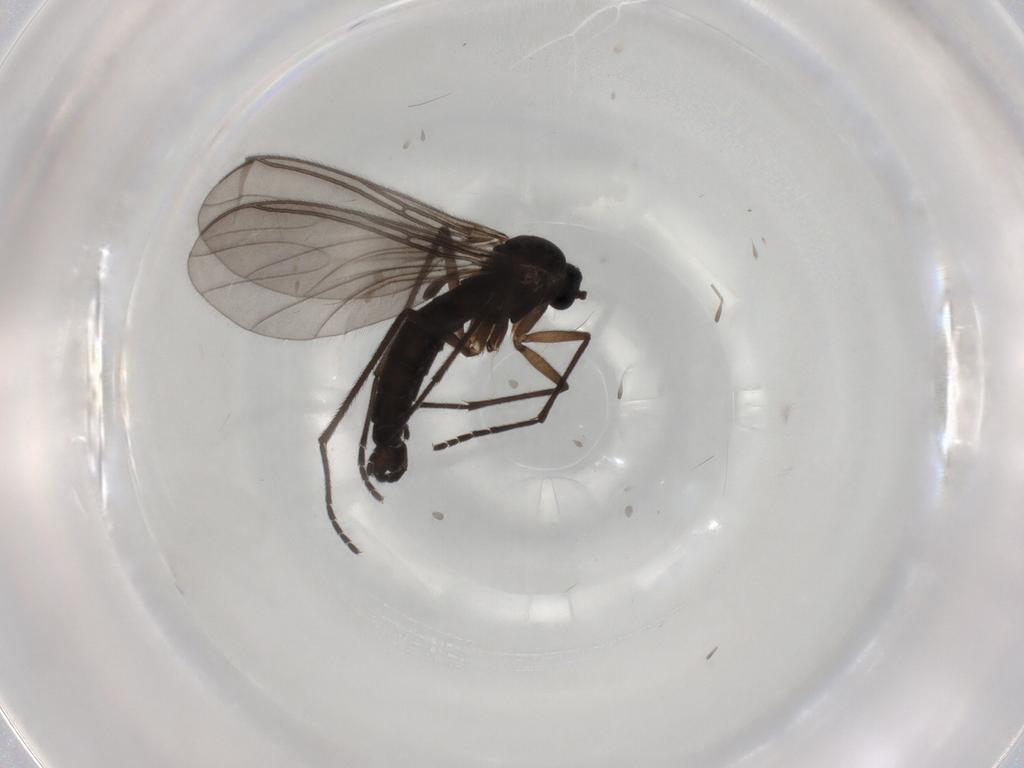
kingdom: Animalia
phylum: Arthropoda
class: Insecta
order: Diptera
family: Sciaridae
